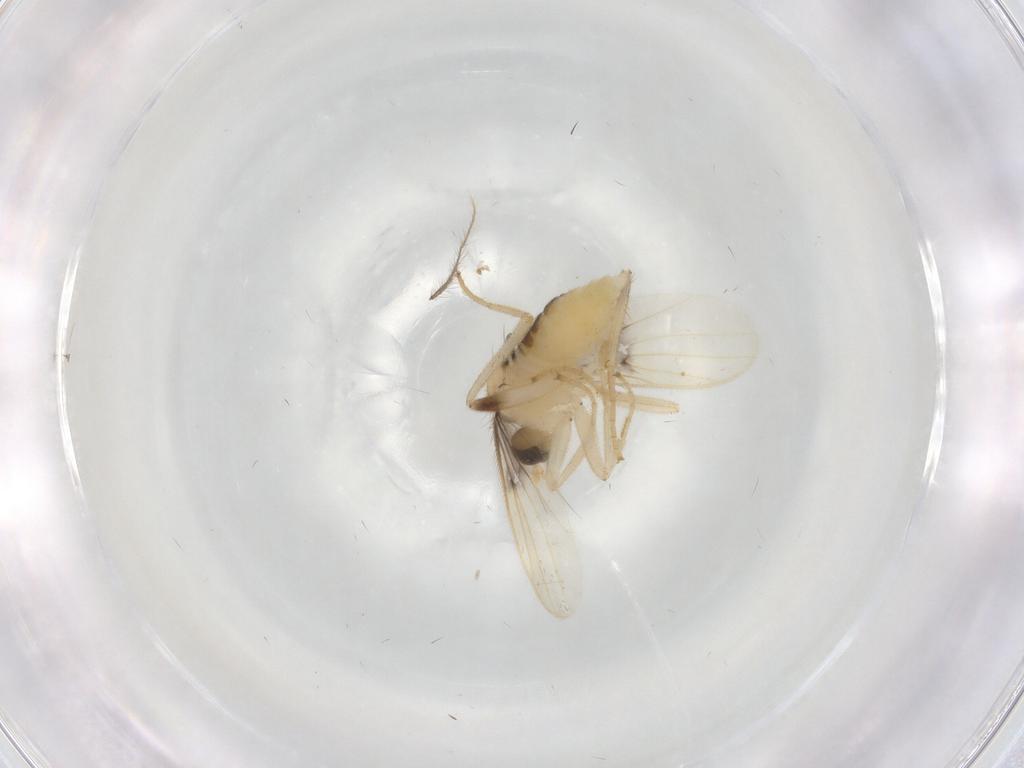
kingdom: Animalia
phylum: Arthropoda
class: Insecta
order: Diptera
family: Hybotidae
